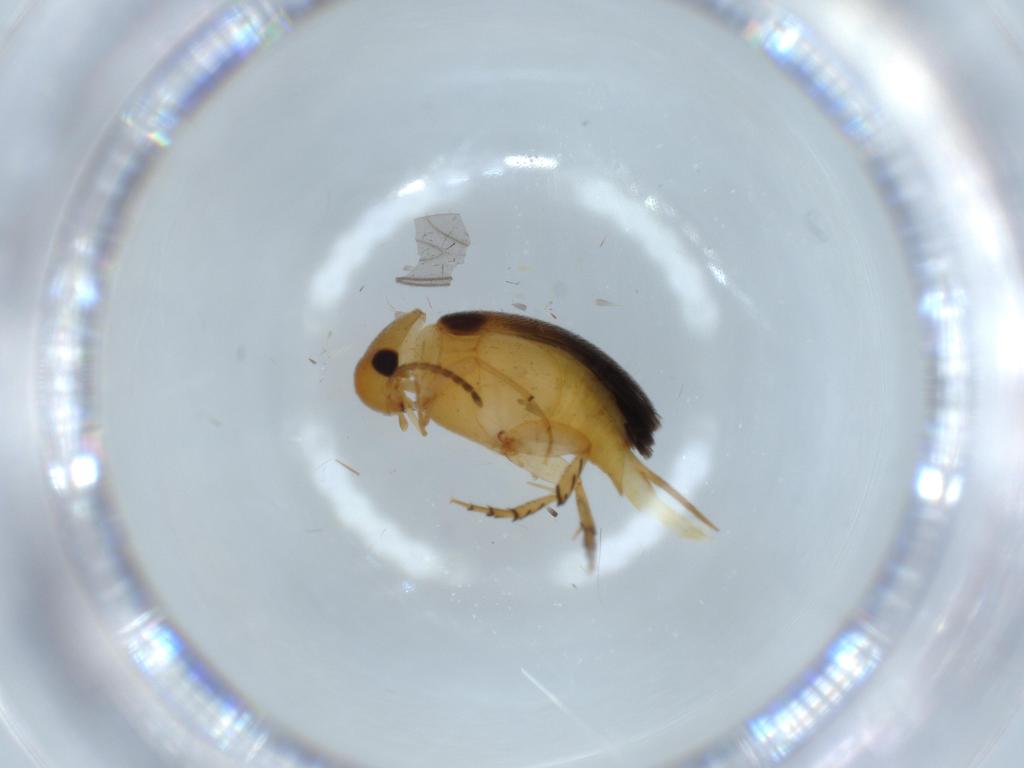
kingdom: Animalia
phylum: Arthropoda
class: Insecta
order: Coleoptera
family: Mordellidae
